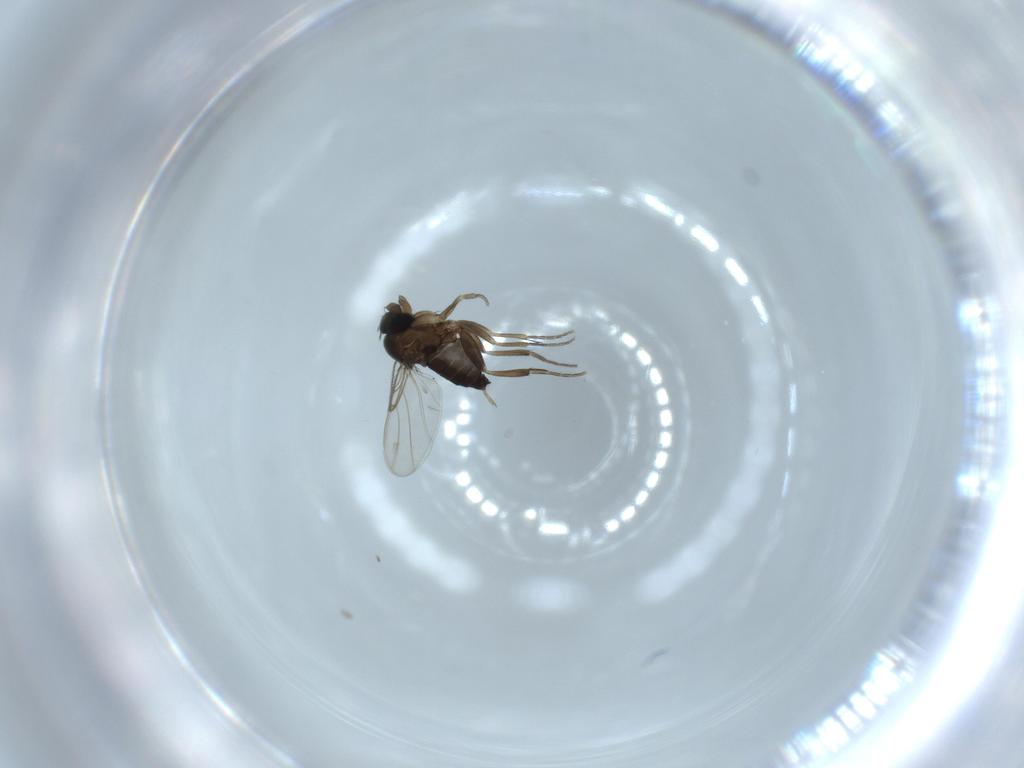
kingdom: Animalia
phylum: Arthropoda
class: Insecta
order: Diptera
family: Phoridae
